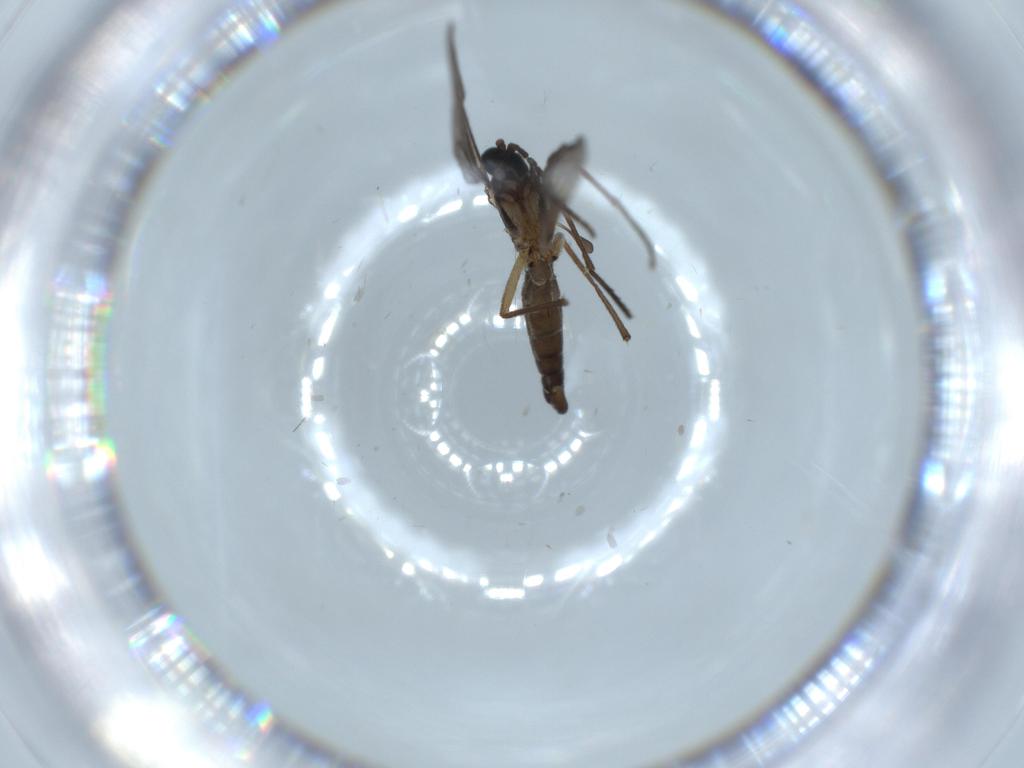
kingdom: Animalia
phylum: Arthropoda
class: Insecta
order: Diptera
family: Sciaridae
